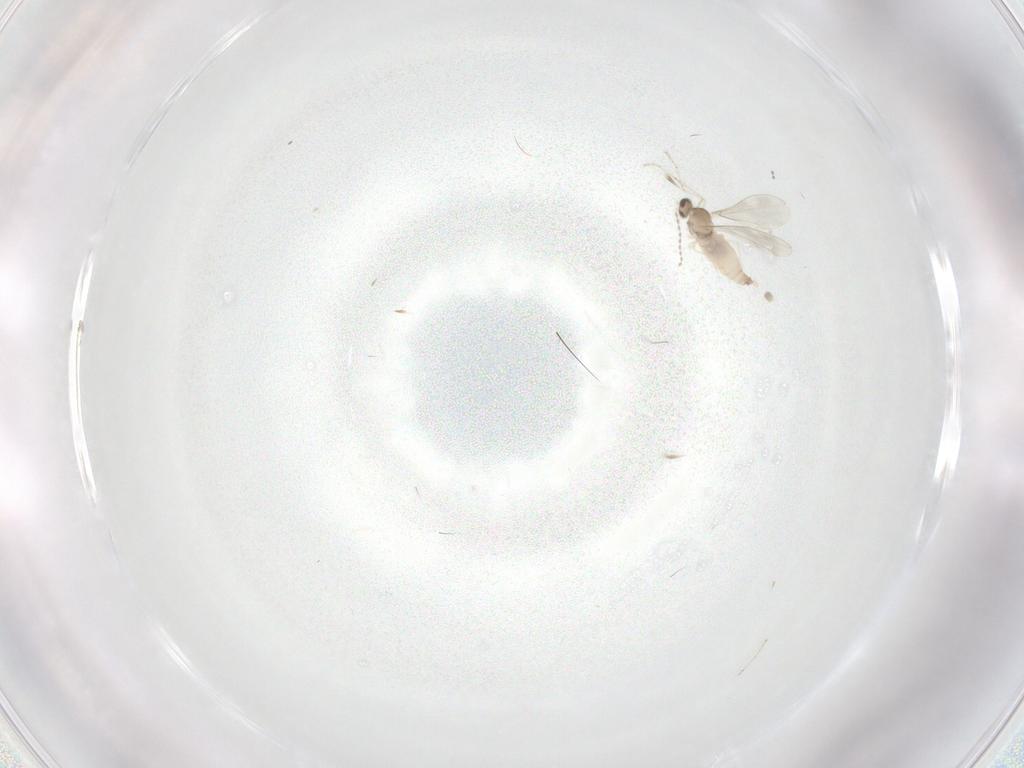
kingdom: Animalia
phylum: Arthropoda
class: Insecta
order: Diptera
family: Cecidomyiidae
